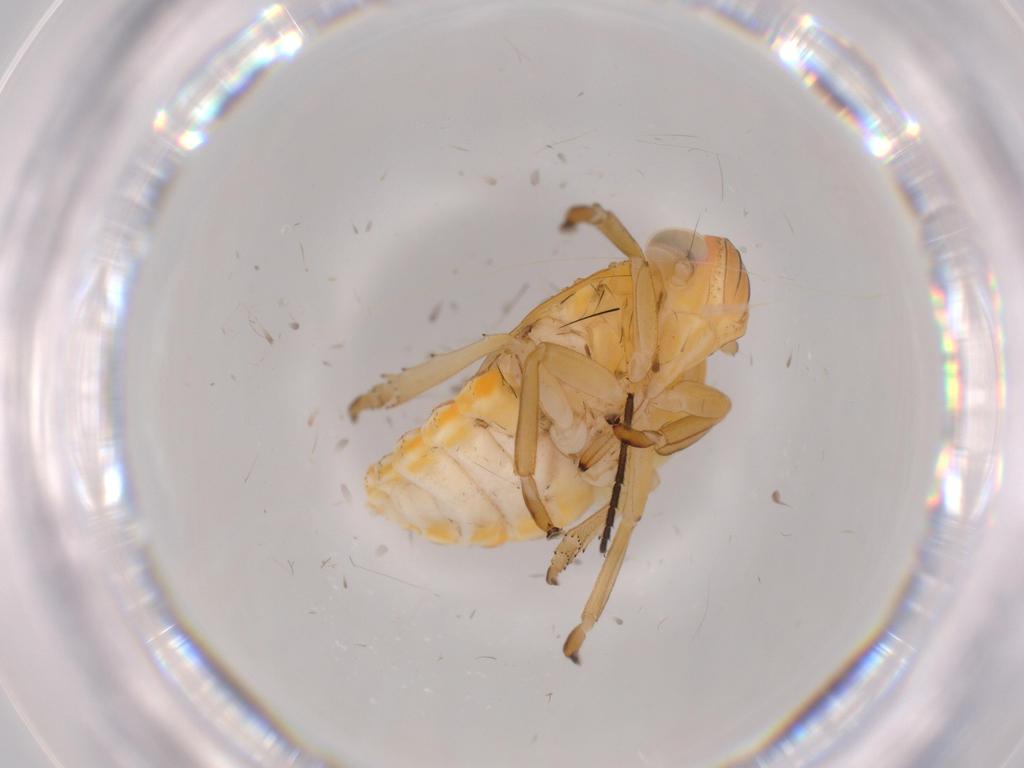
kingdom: Animalia
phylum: Arthropoda
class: Insecta
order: Hemiptera
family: Issidae
